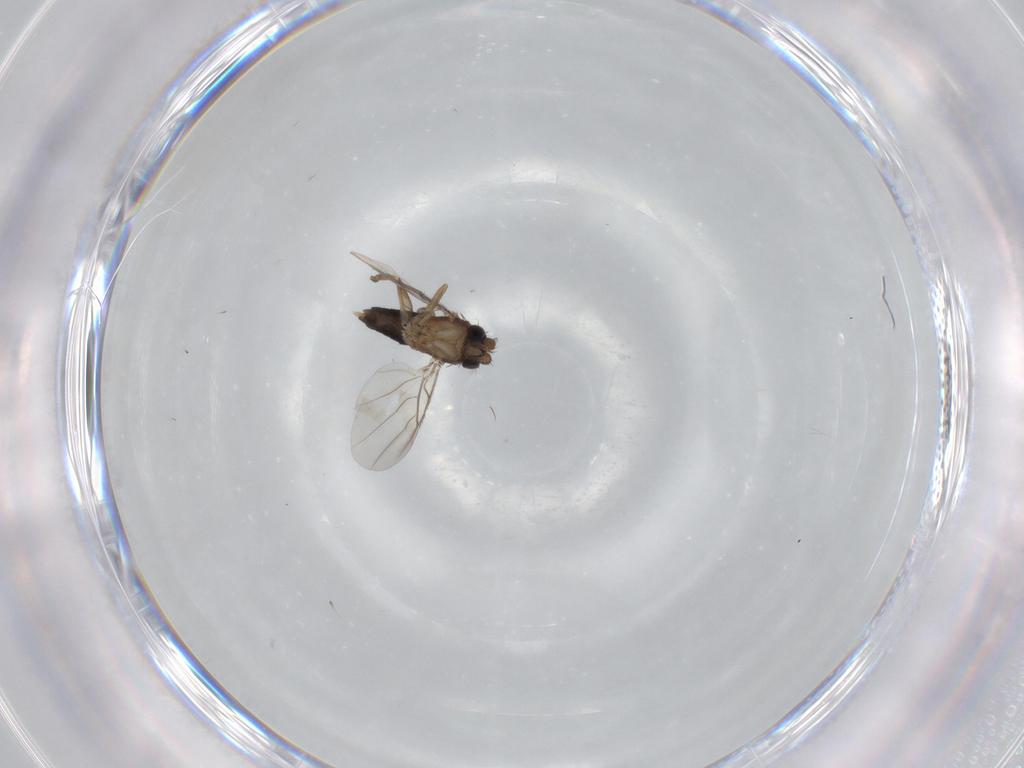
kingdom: Animalia
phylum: Arthropoda
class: Insecta
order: Diptera
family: Phoridae
